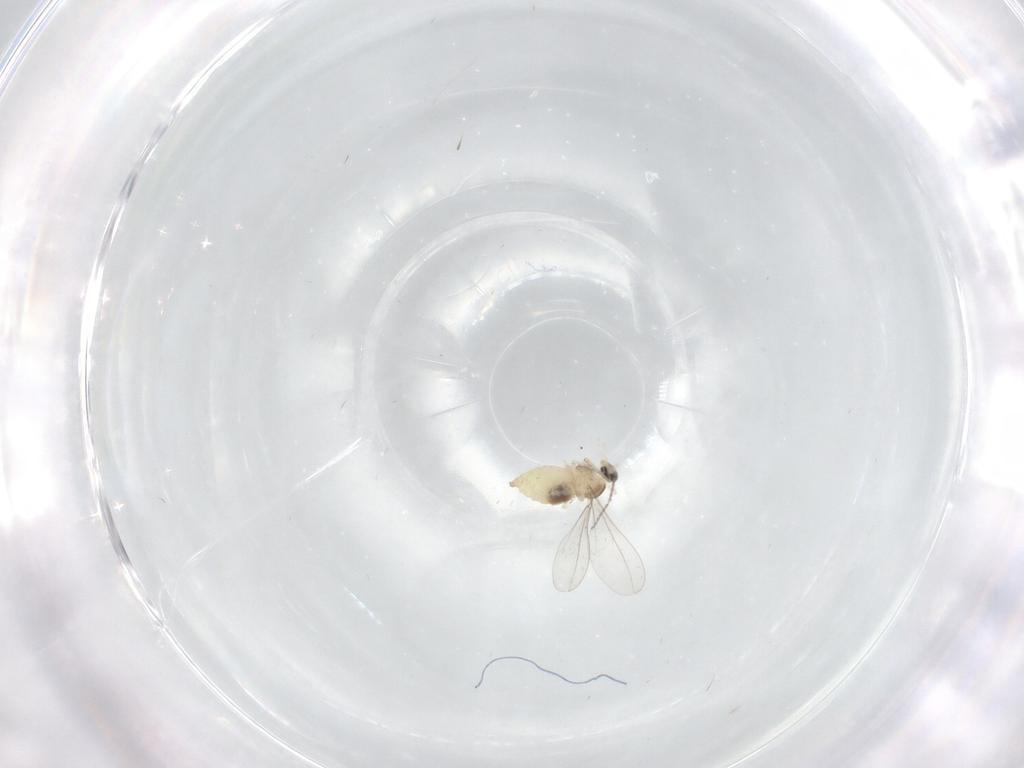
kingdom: Animalia
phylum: Arthropoda
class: Insecta
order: Diptera
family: Cecidomyiidae
